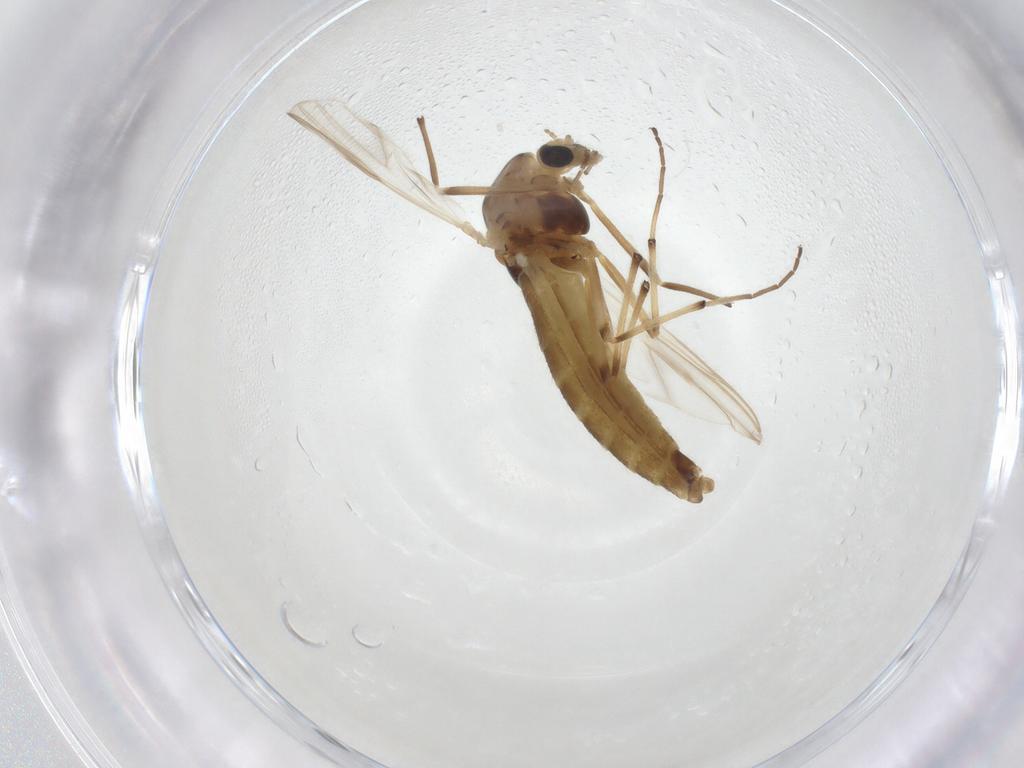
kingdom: Animalia
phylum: Arthropoda
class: Insecta
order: Diptera
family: Chironomidae
